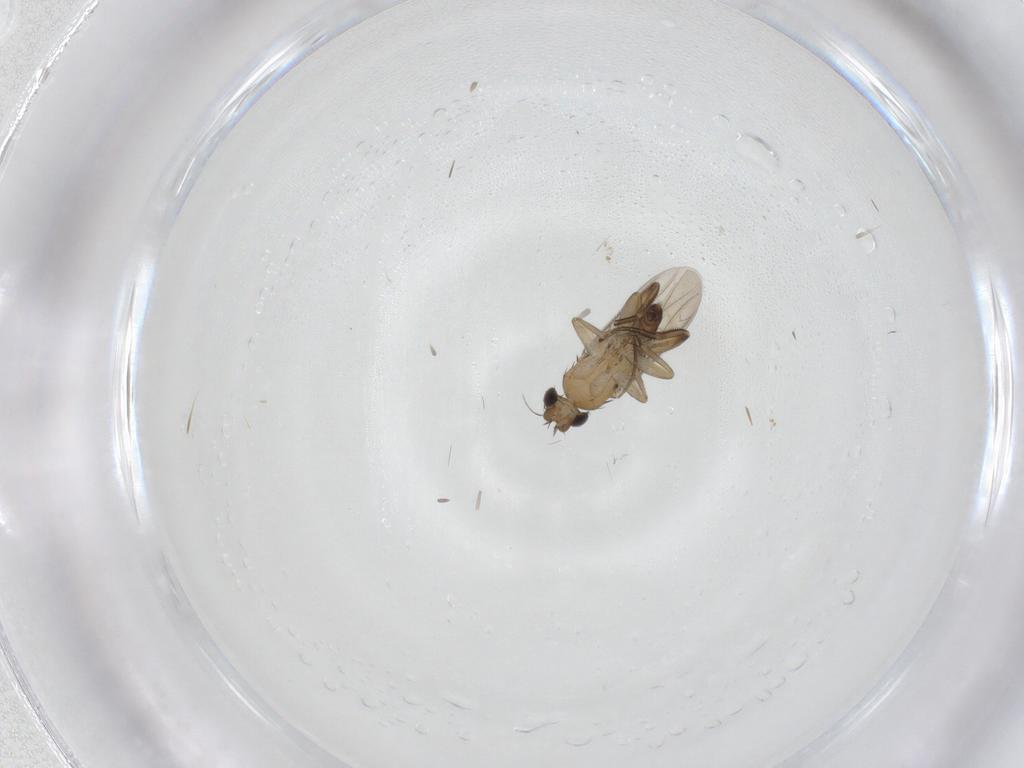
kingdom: Animalia
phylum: Arthropoda
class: Insecta
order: Diptera
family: Phoridae
